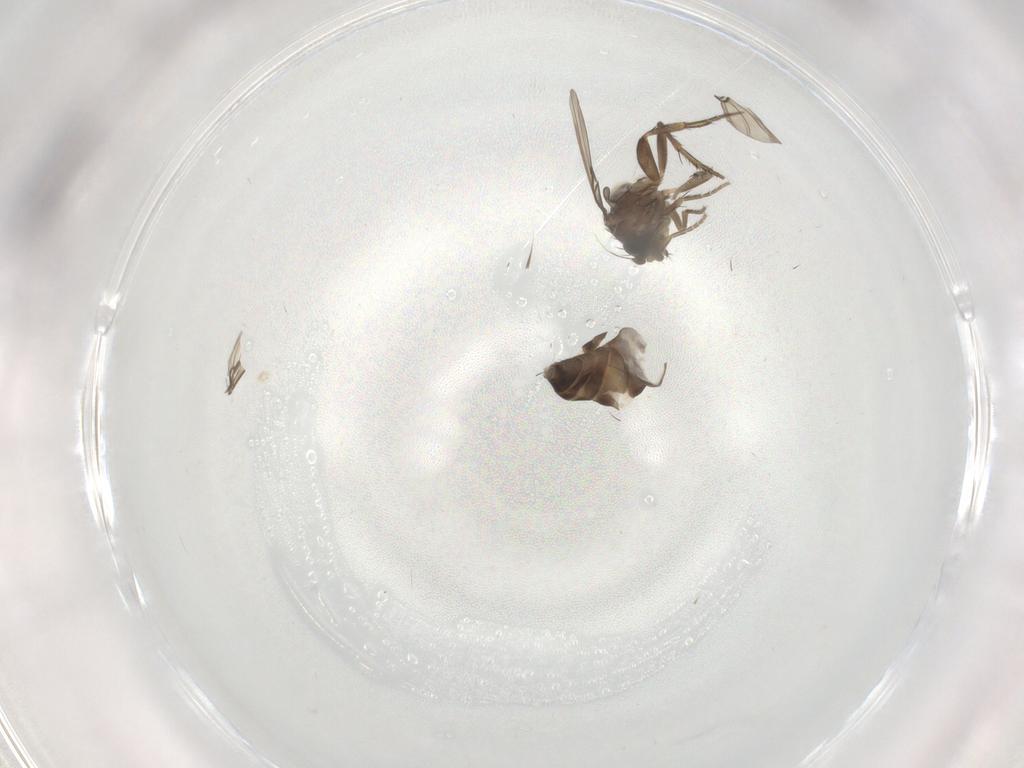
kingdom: Animalia
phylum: Arthropoda
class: Insecta
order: Diptera
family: Phoridae
